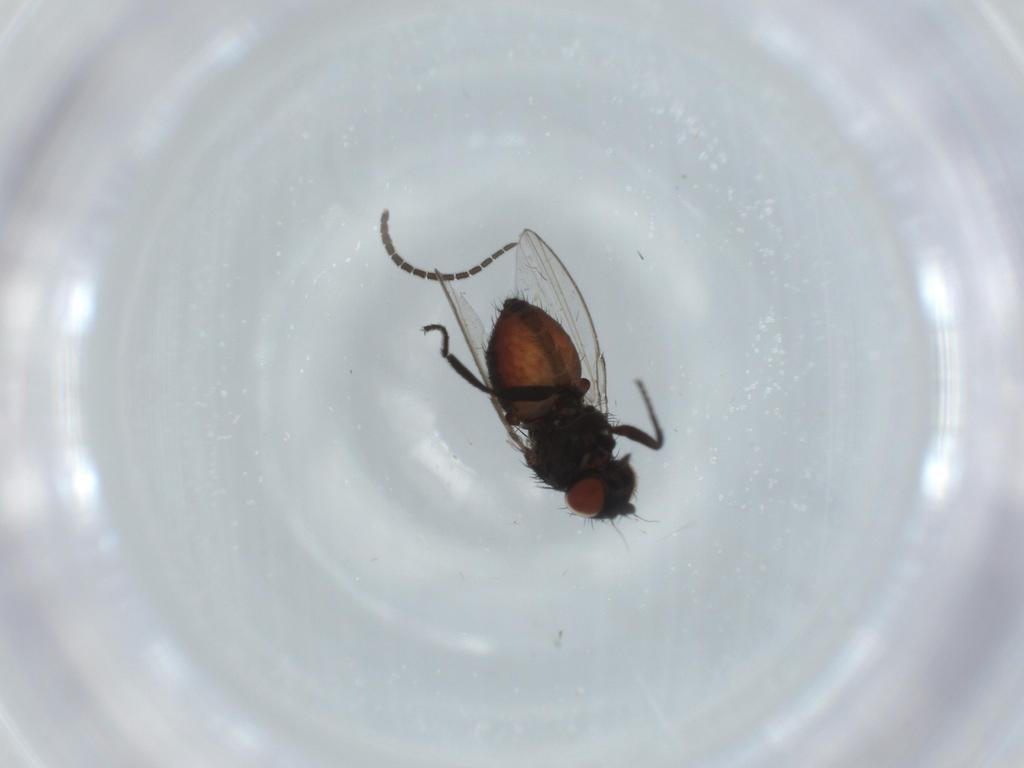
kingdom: Animalia
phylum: Arthropoda
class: Insecta
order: Diptera
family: Sciaridae
